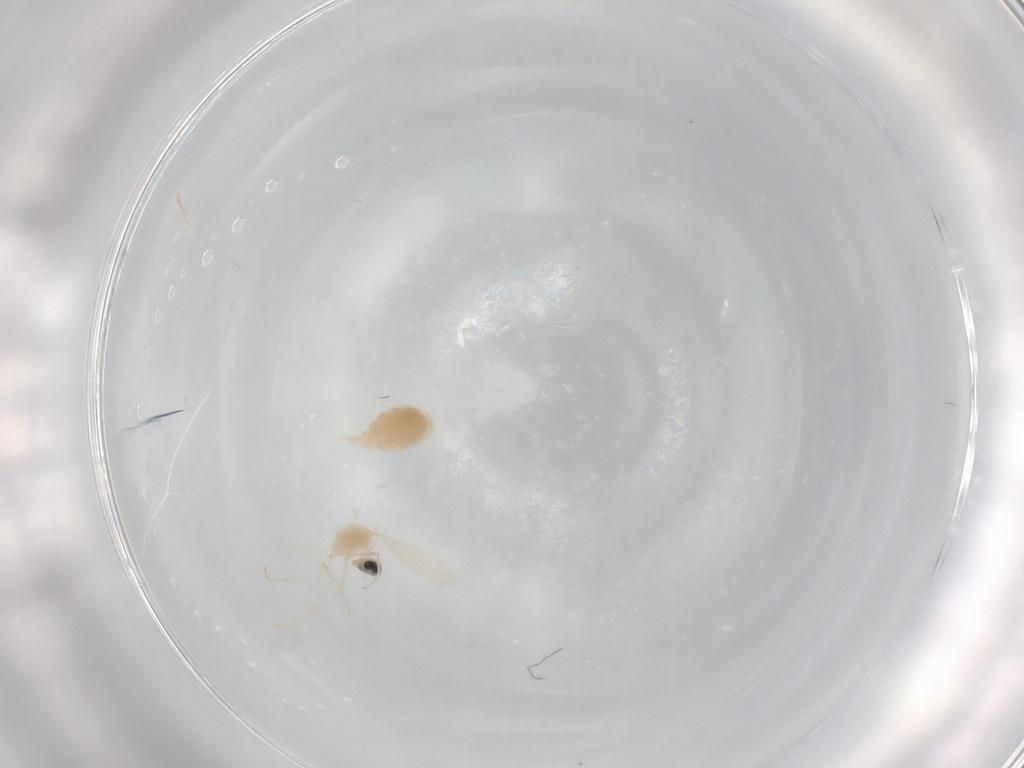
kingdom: Animalia
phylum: Arthropoda
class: Insecta
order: Diptera
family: Cecidomyiidae
